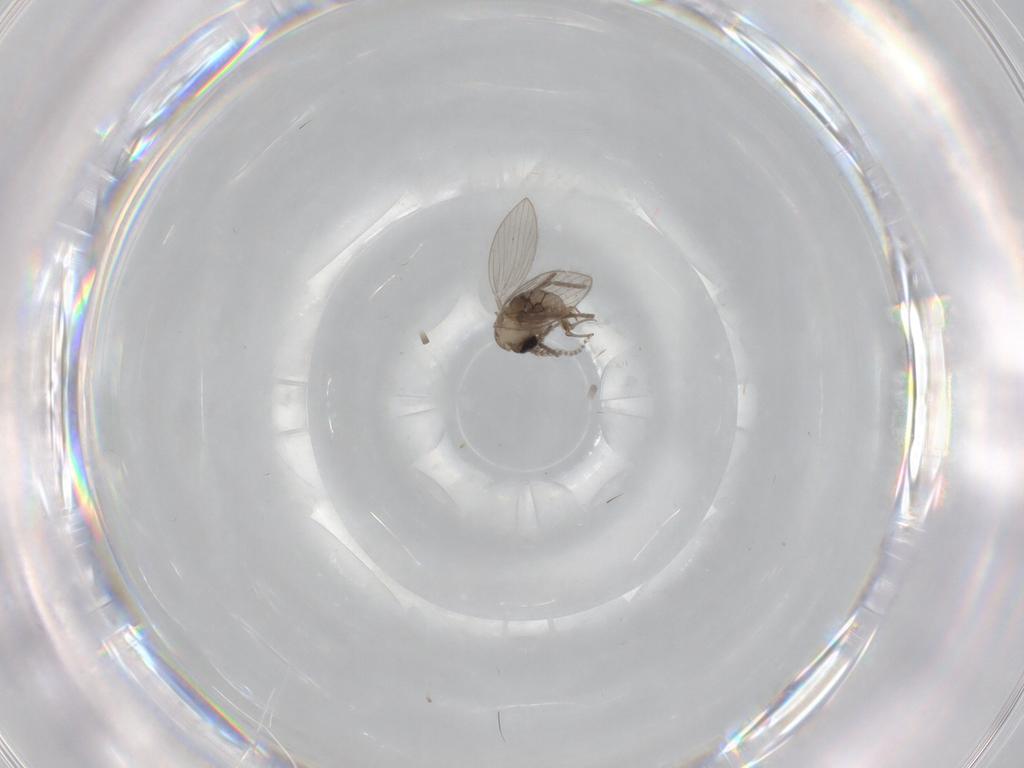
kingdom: Animalia
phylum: Arthropoda
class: Insecta
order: Diptera
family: Psychodidae
